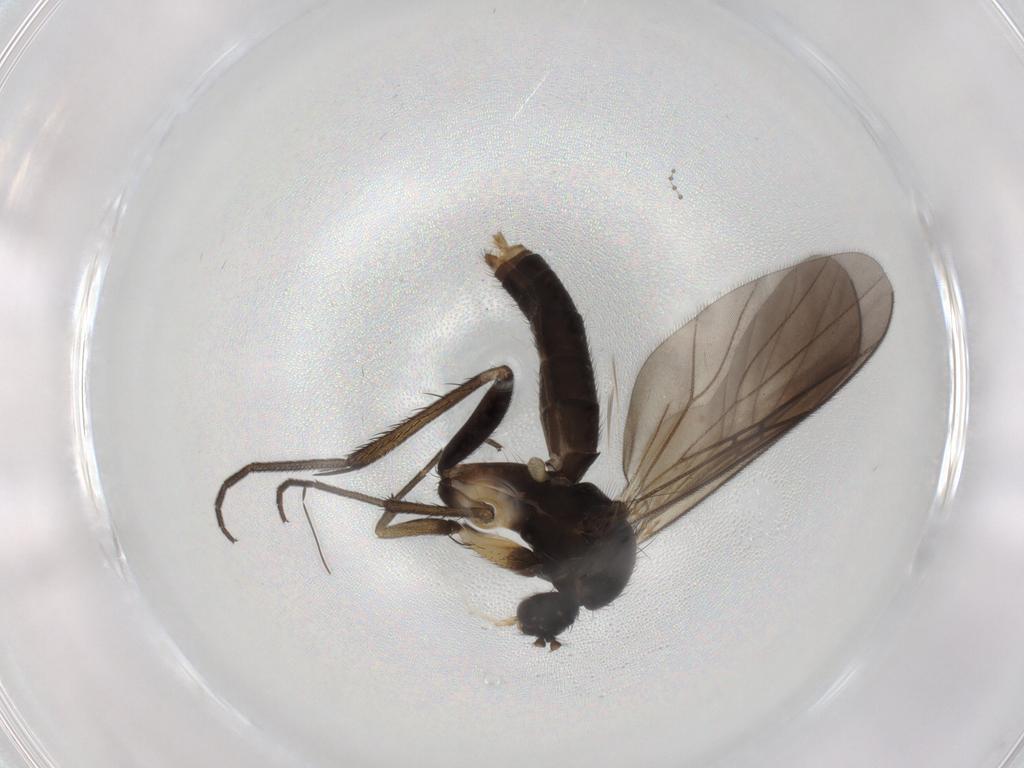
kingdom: Animalia
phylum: Arthropoda
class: Insecta
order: Diptera
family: Chironomidae
